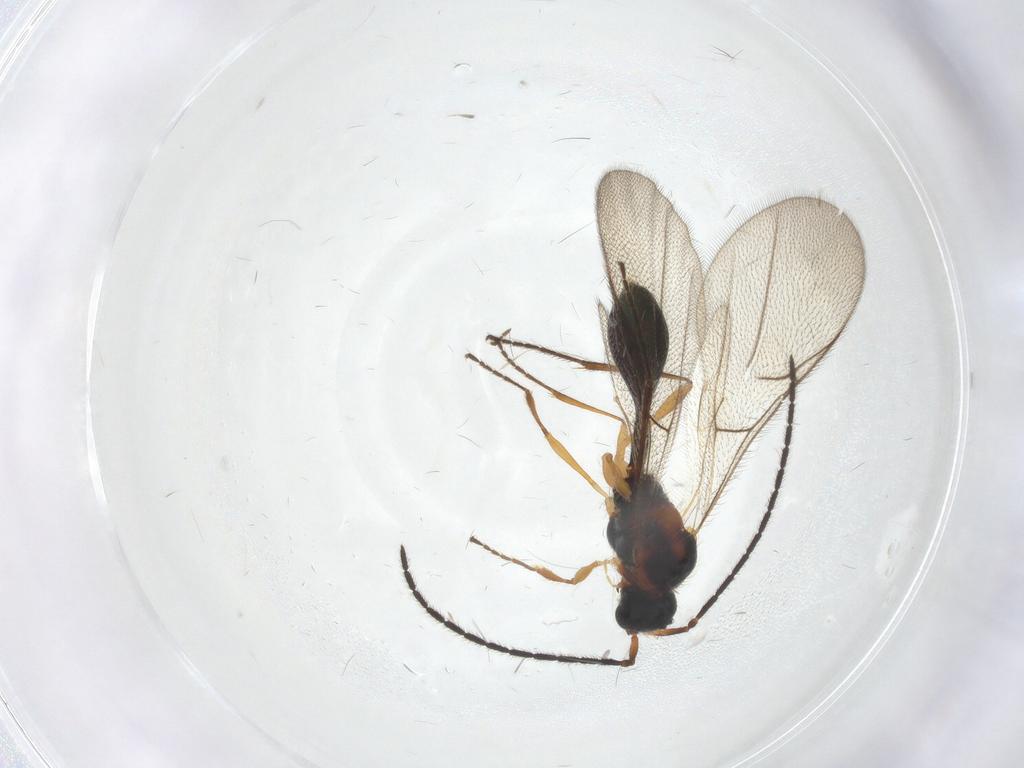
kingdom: Animalia
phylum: Arthropoda
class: Insecta
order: Hymenoptera
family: Diapriidae
